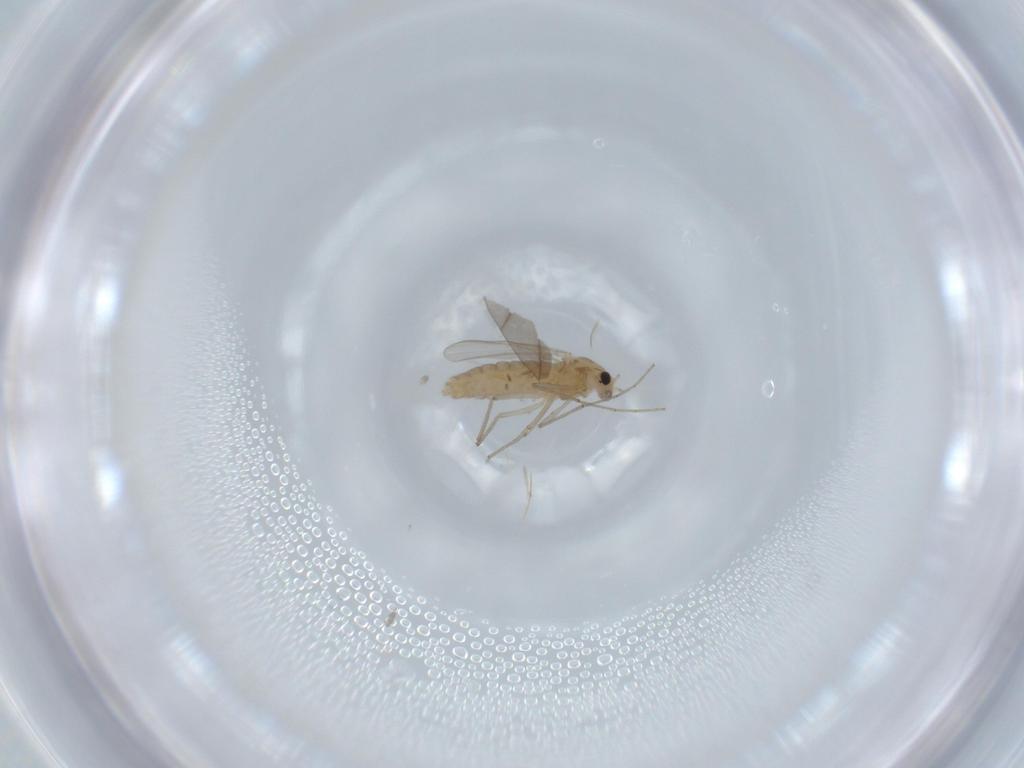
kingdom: Animalia
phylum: Arthropoda
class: Insecta
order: Diptera
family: Chironomidae
